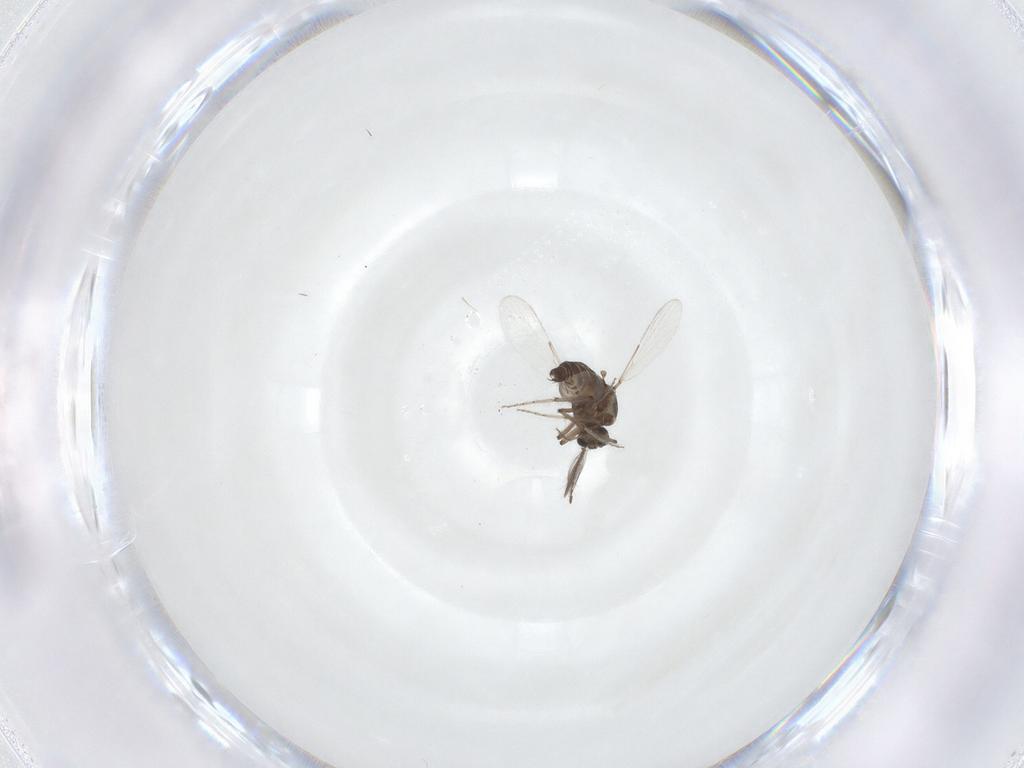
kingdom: Animalia
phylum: Arthropoda
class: Insecta
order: Diptera
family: Ceratopogonidae
